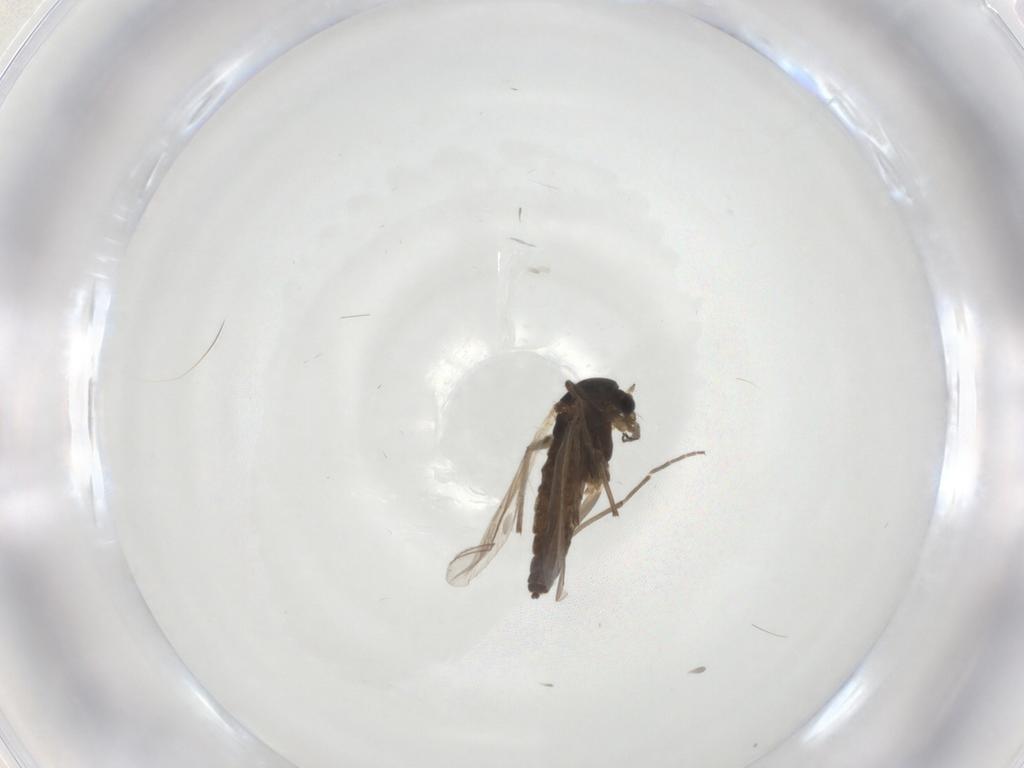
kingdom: Animalia
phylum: Arthropoda
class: Insecta
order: Diptera
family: Chironomidae
